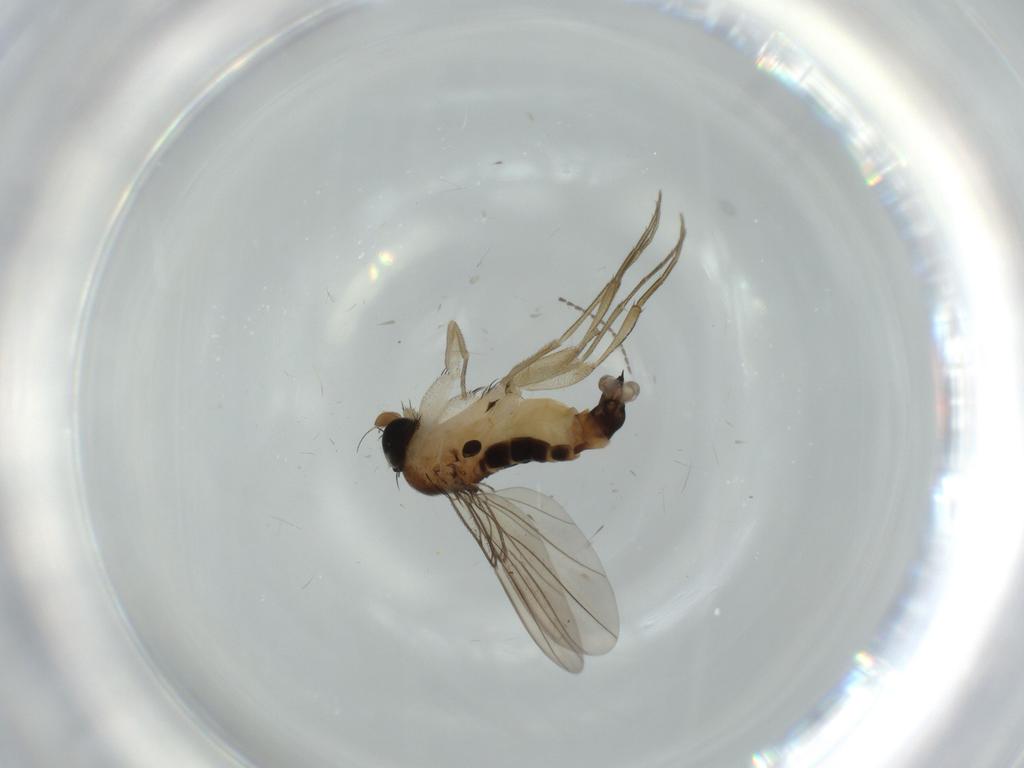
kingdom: Animalia
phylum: Arthropoda
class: Insecta
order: Diptera
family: Phoridae
